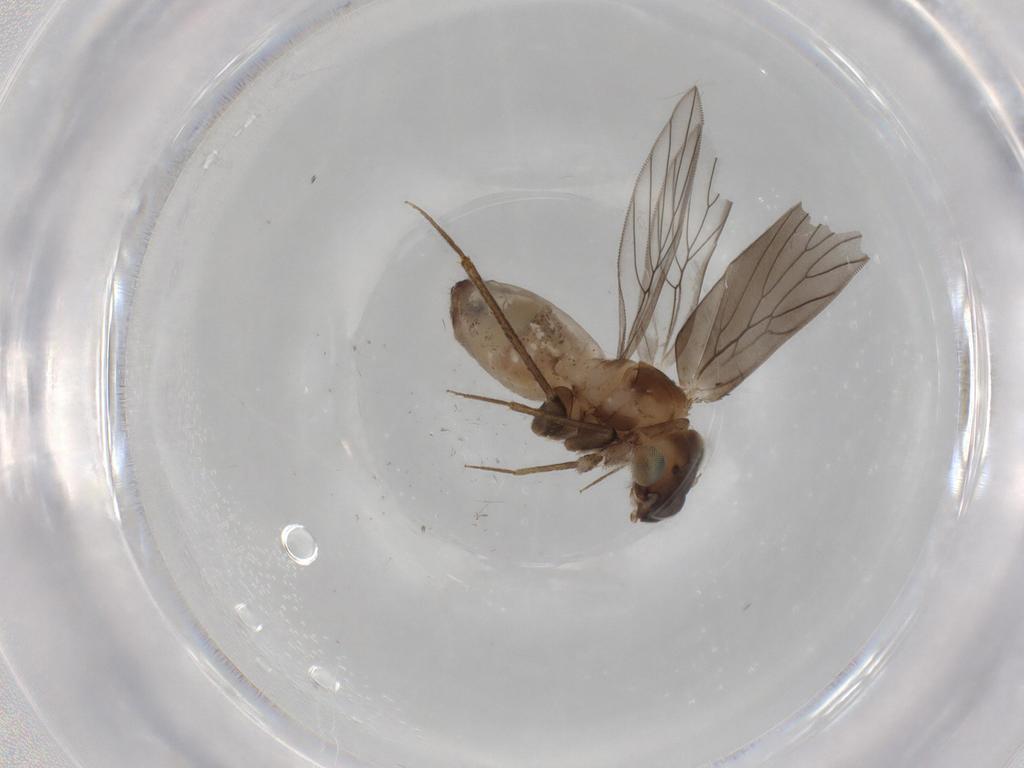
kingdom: Animalia
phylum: Arthropoda
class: Insecta
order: Psocodea
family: Lepidopsocidae
